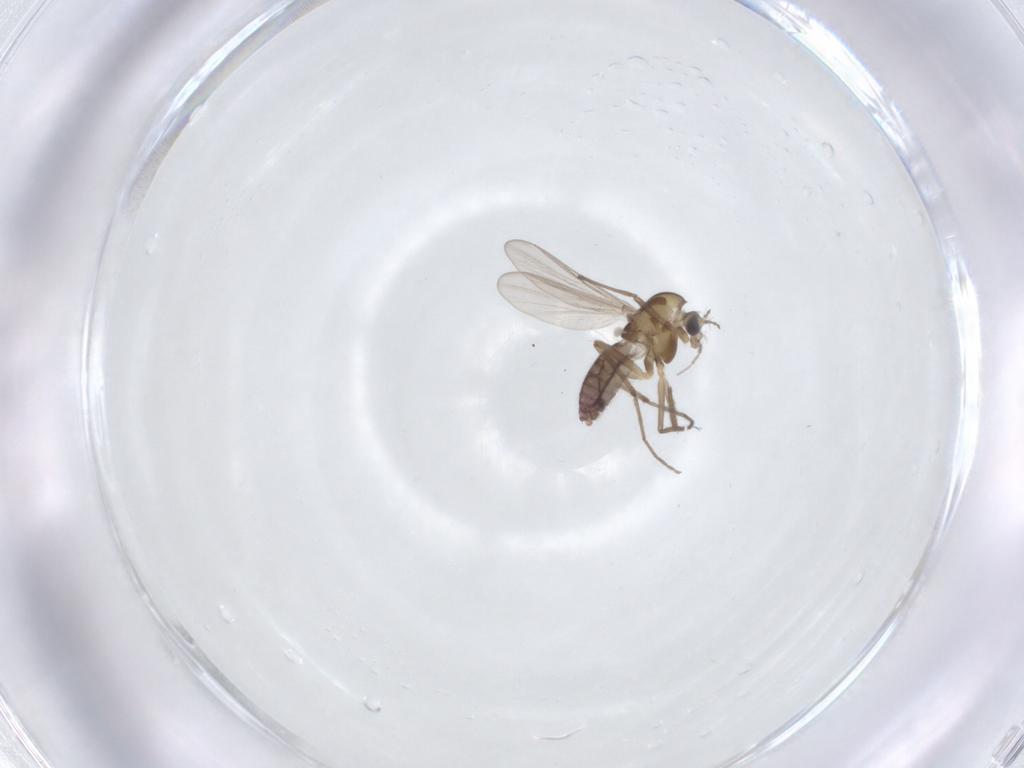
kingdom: Animalia
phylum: Arthropoda
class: Insecta
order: Diptera
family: Chironomidae
